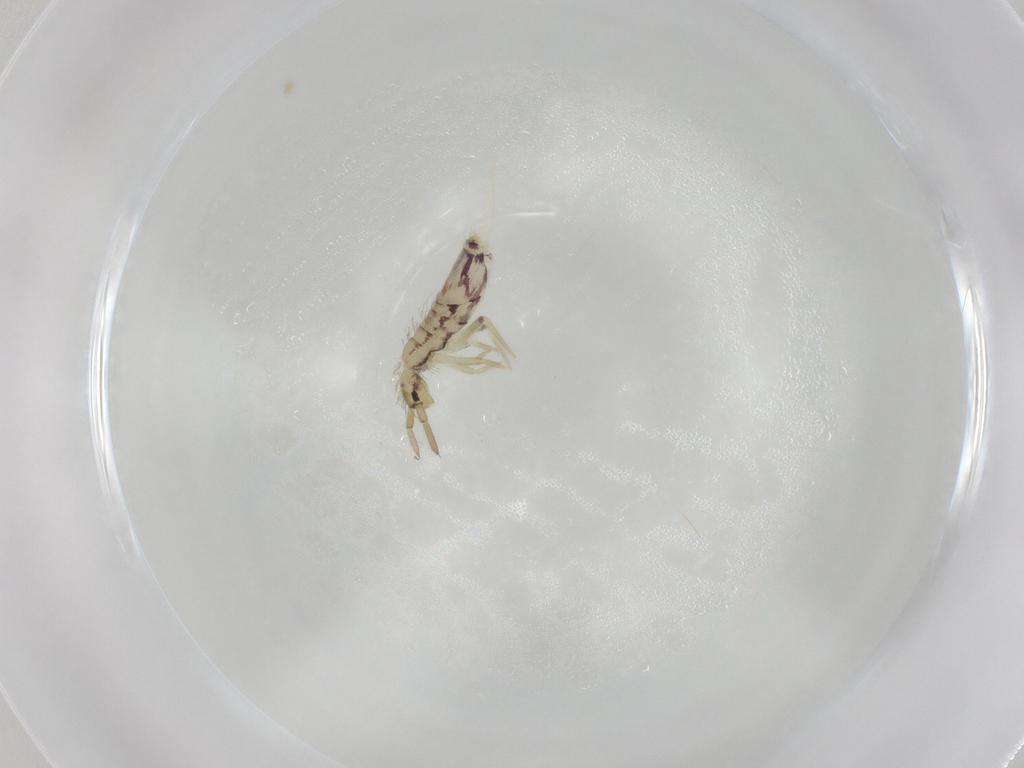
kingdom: Animalia
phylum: Arthropoda
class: Collembola
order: Entomobryomorpha
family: Entomobryidae
